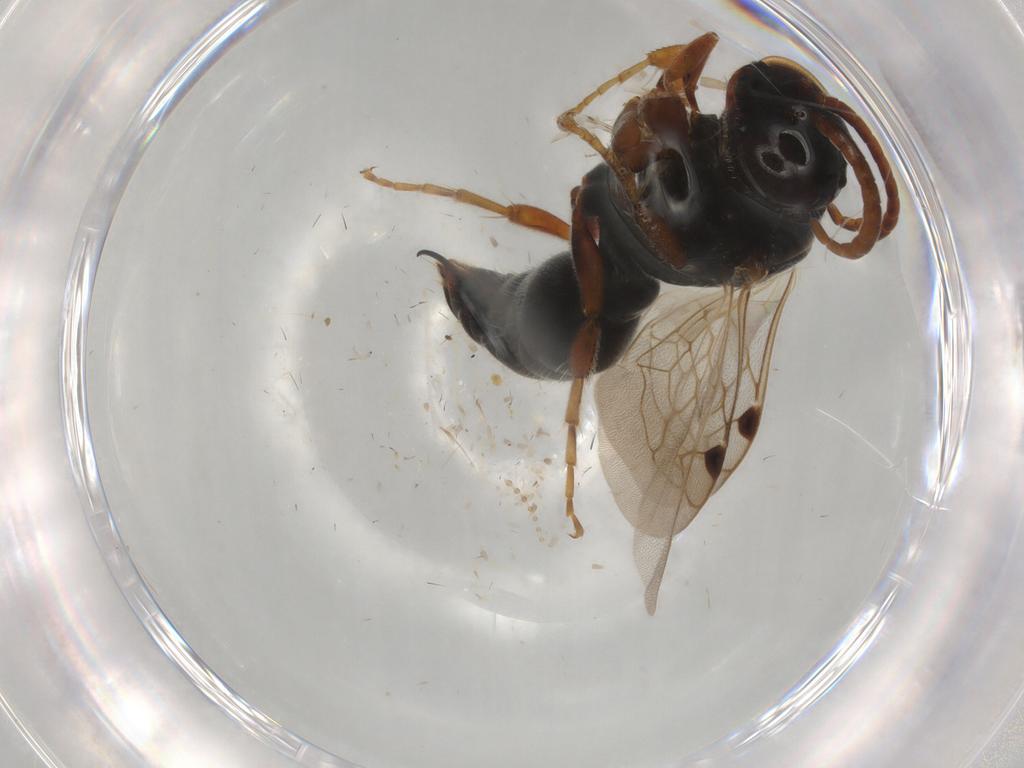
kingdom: Animalia
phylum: Arthropoda
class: Insecta
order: Hymenoptera
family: Tiphiidae
